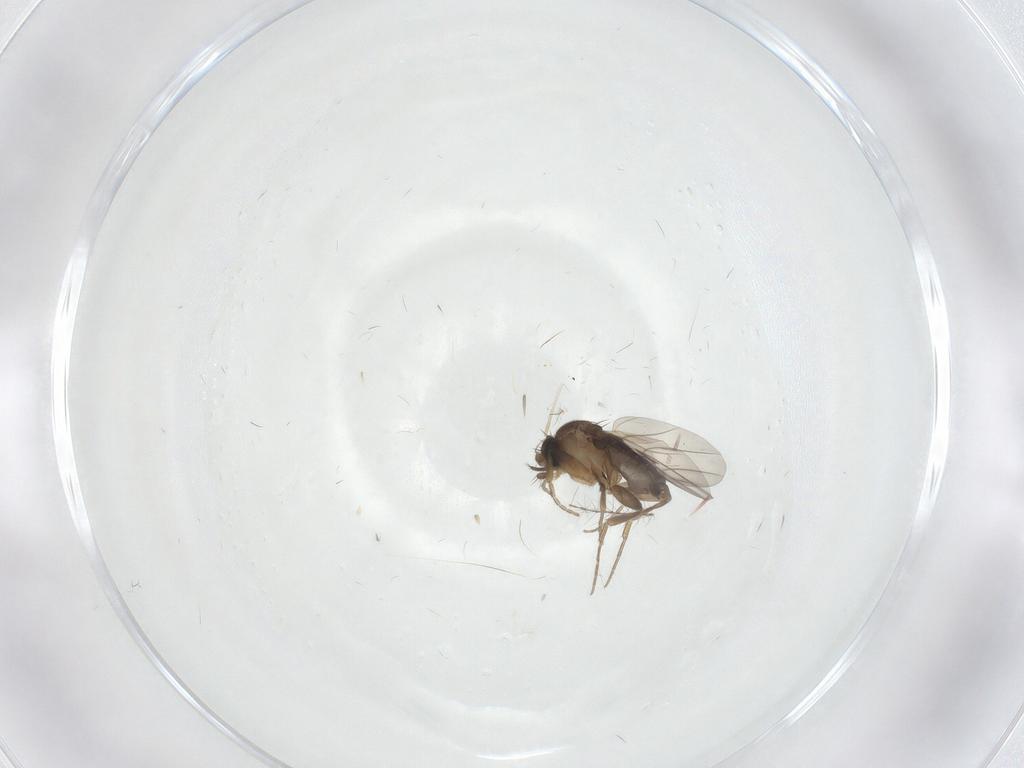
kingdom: Animalia
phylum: Arthropoda
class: Insecta
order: Diptera
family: Phoridae
